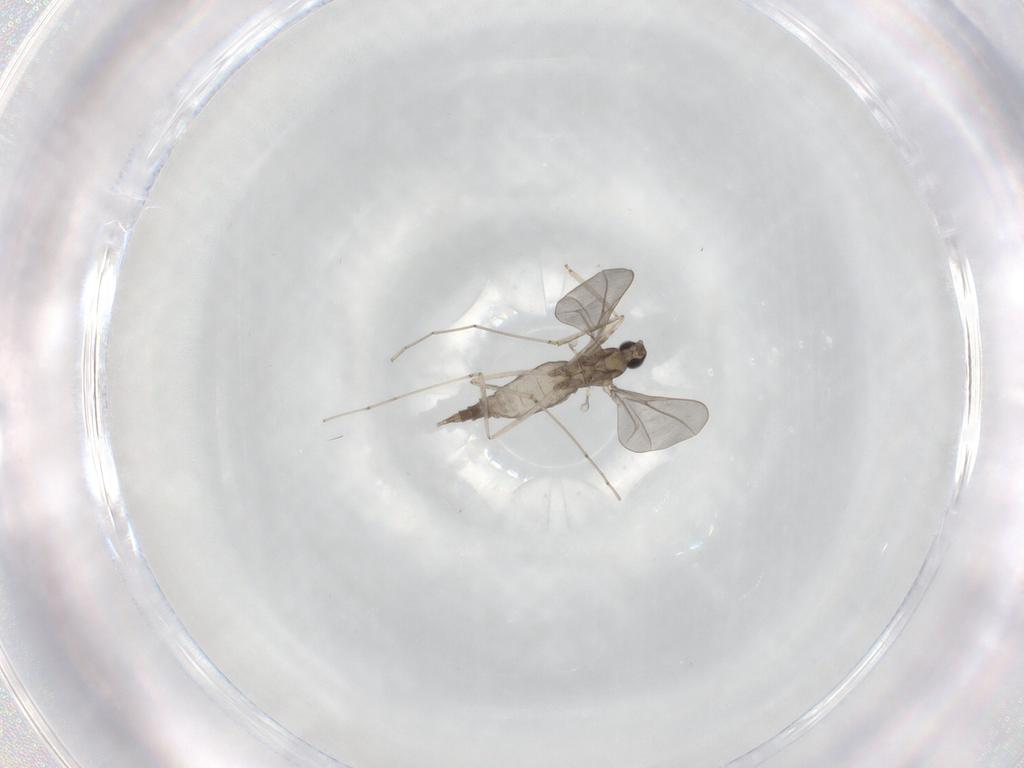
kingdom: Animalia
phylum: Arthropoda
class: Insecta
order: Diptera
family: Cecidomyiidae
